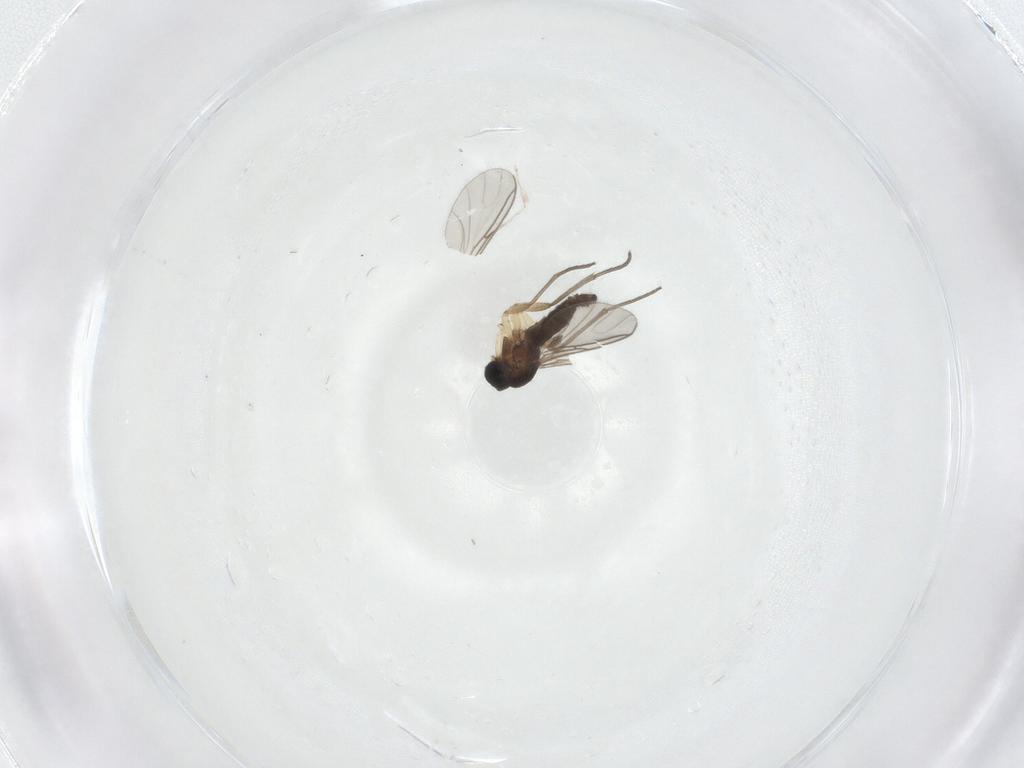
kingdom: Animalia
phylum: Arthropoda
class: Insecta
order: Diptera
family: Sciaridae
